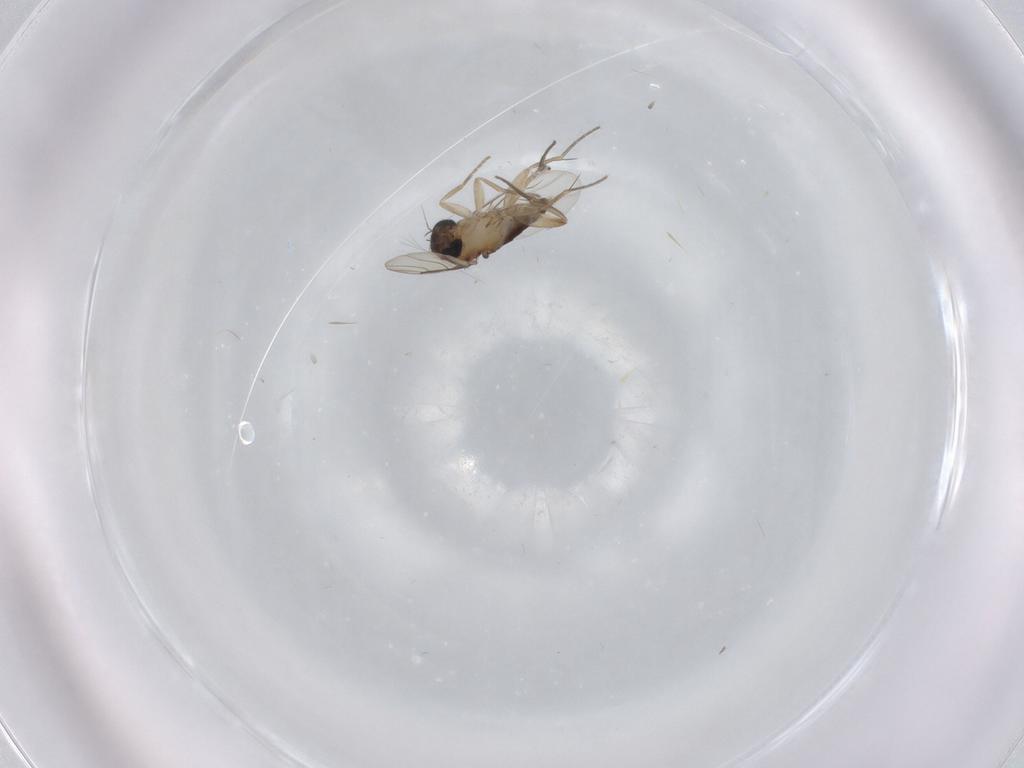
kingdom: Animalia
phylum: Arthropoda
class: Insecta
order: Diptera
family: Phoridae
